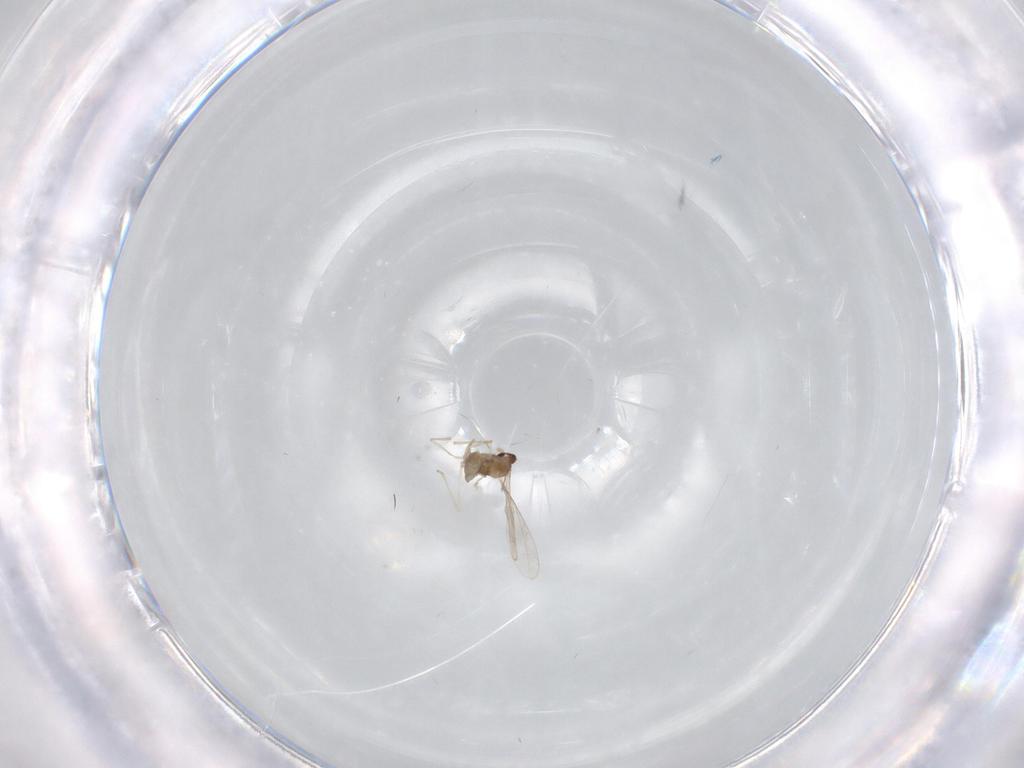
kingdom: Animalia
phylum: Arthropoda
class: Insecta
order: Diptera
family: Cecidomyiidae
